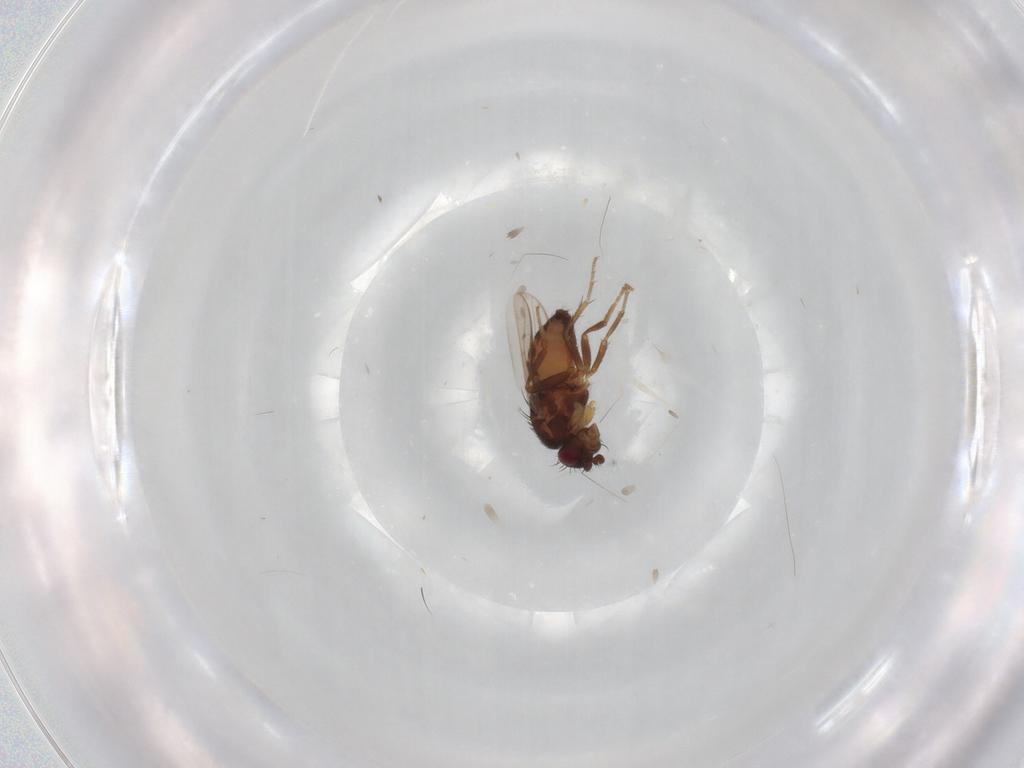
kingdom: Animalia
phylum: Arthropoda
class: Insecta
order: Diptera
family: Sphaeroceridae
